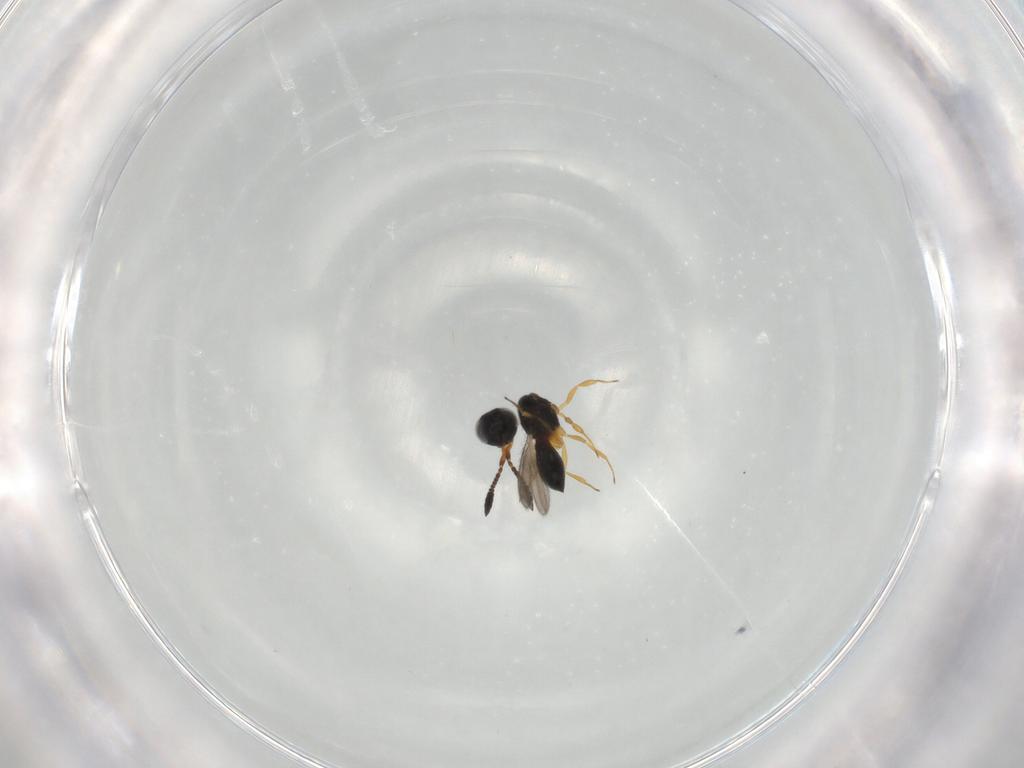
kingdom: Animalia
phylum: Arthropoda
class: Insecta
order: Hymenoptera
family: Scelionidae
